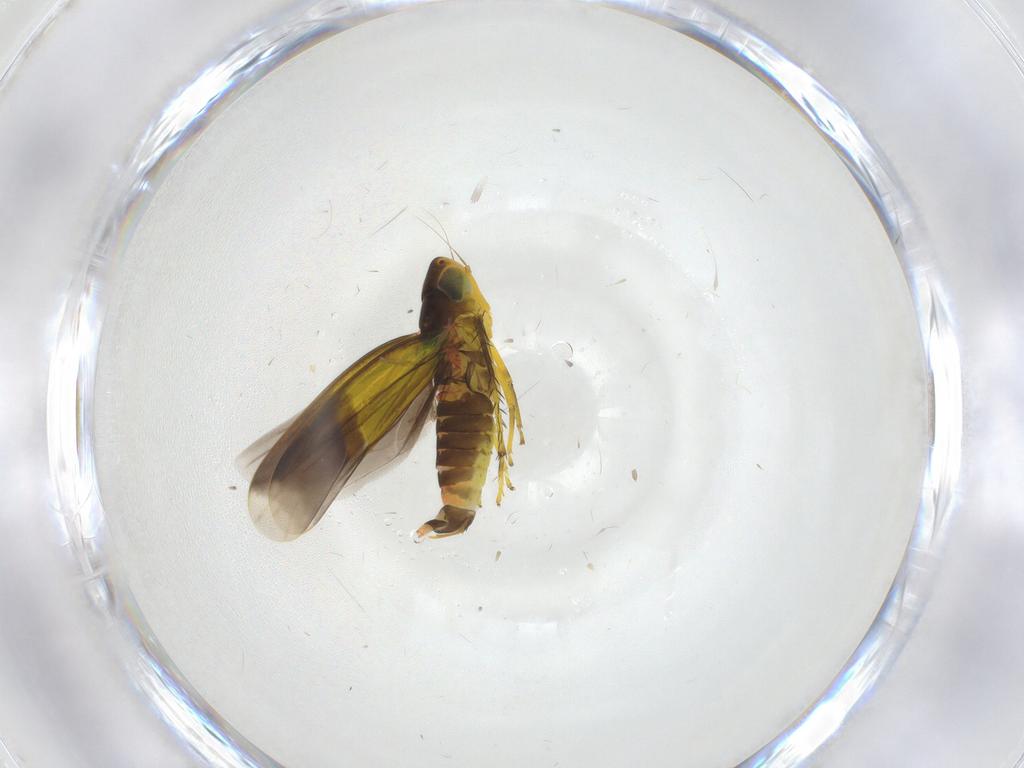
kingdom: Animalia
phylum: Arthropoda
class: Insecta
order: Hemiptera
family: Cicadellidae
